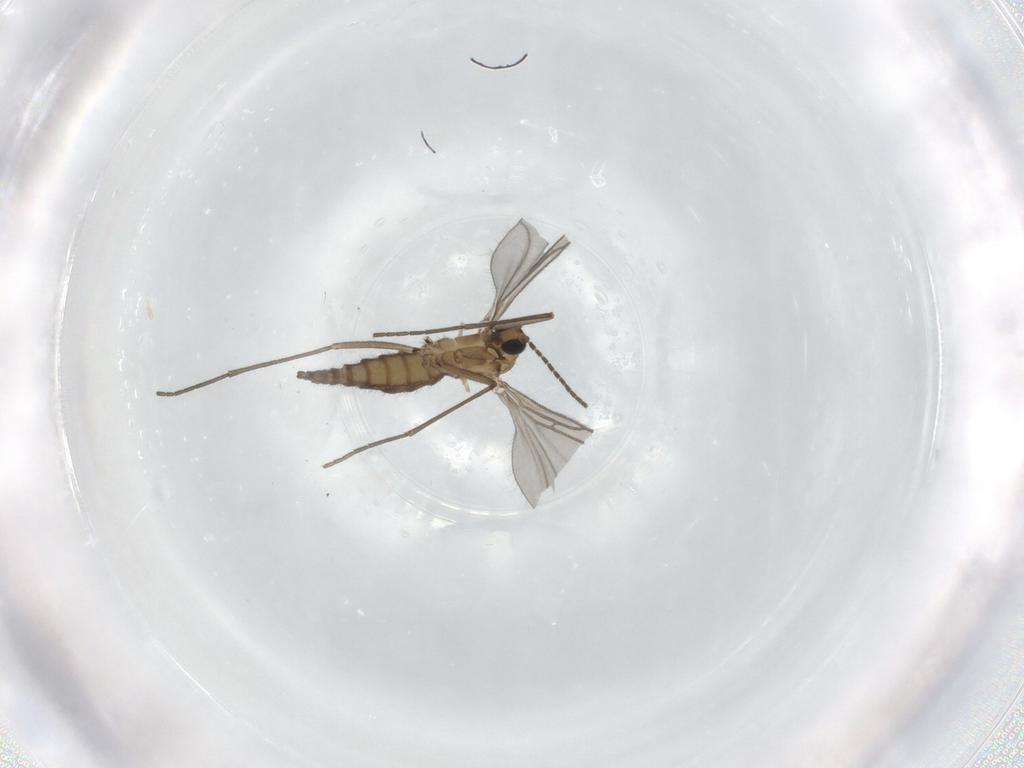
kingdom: Animalia
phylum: Arthropoda
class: Insecta
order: Diptera
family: Sciaridae
